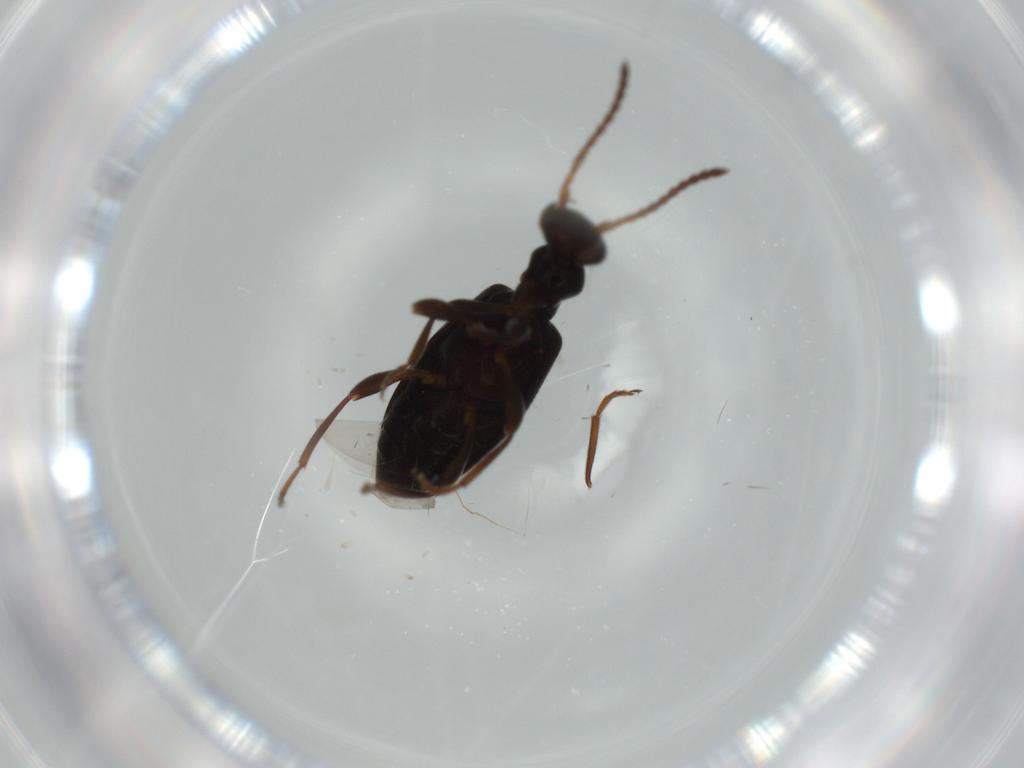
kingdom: Animalia
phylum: Arthropoda
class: Insecta
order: Coleoptera
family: Anthicidae
